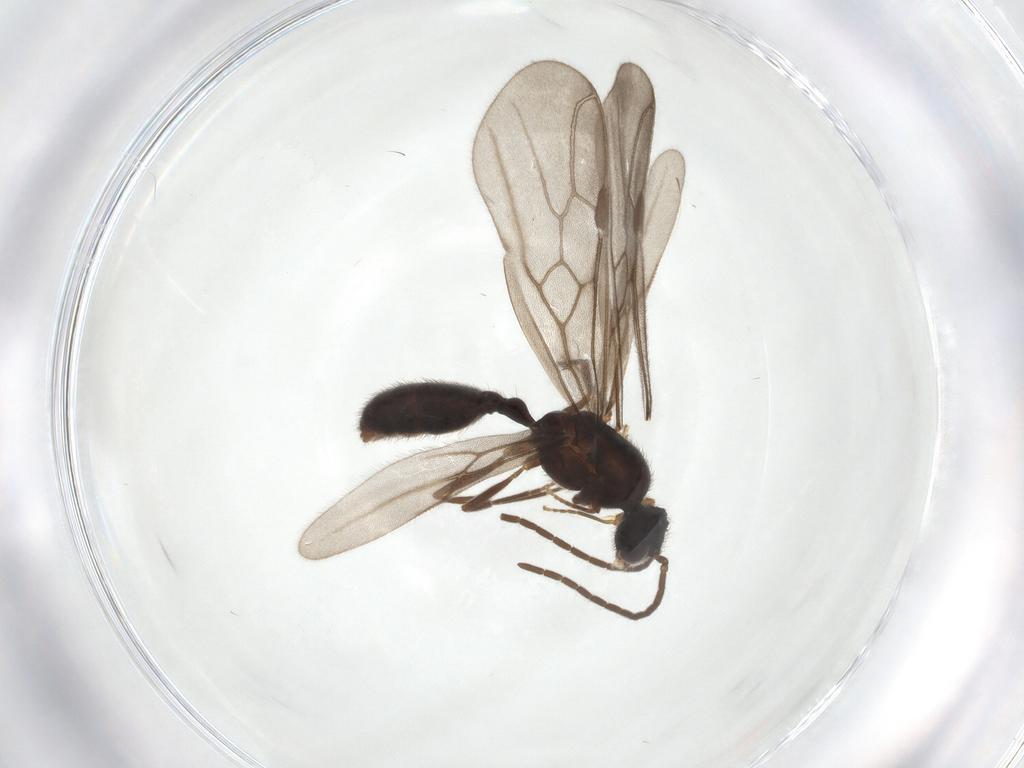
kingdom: Animalia
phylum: Arthropoda
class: Insecta
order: Hymenoptera
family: Formicidae
